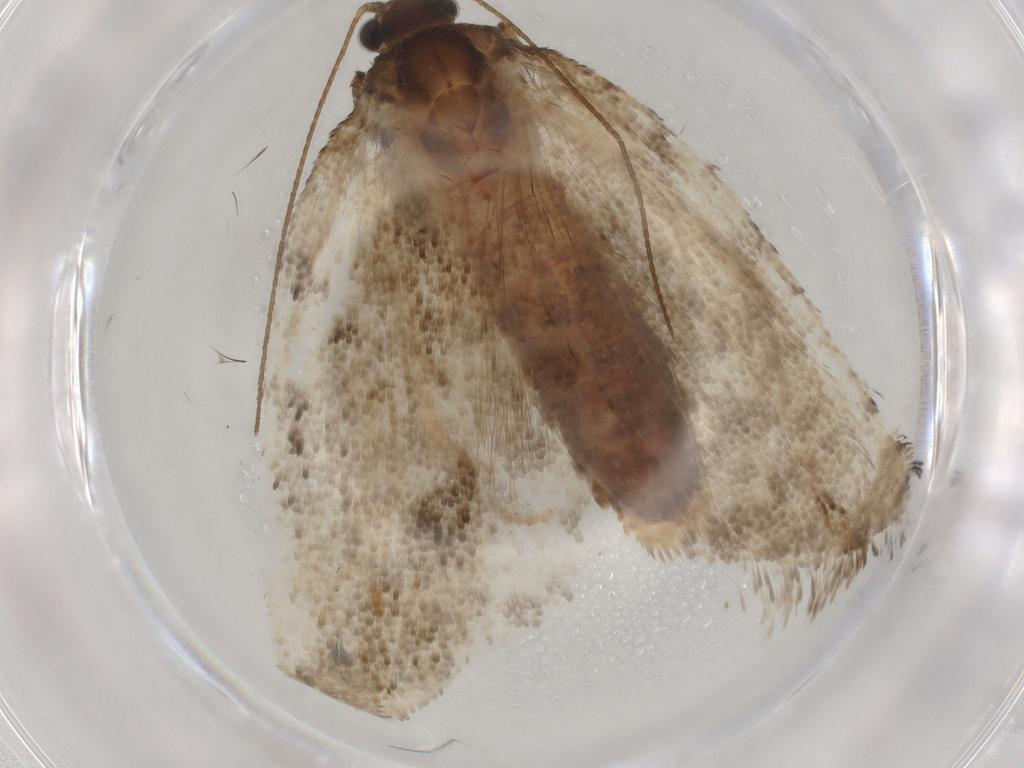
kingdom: Animalia
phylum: Arthropoda
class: Insecta
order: Lepidoptera
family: Limacodidae
